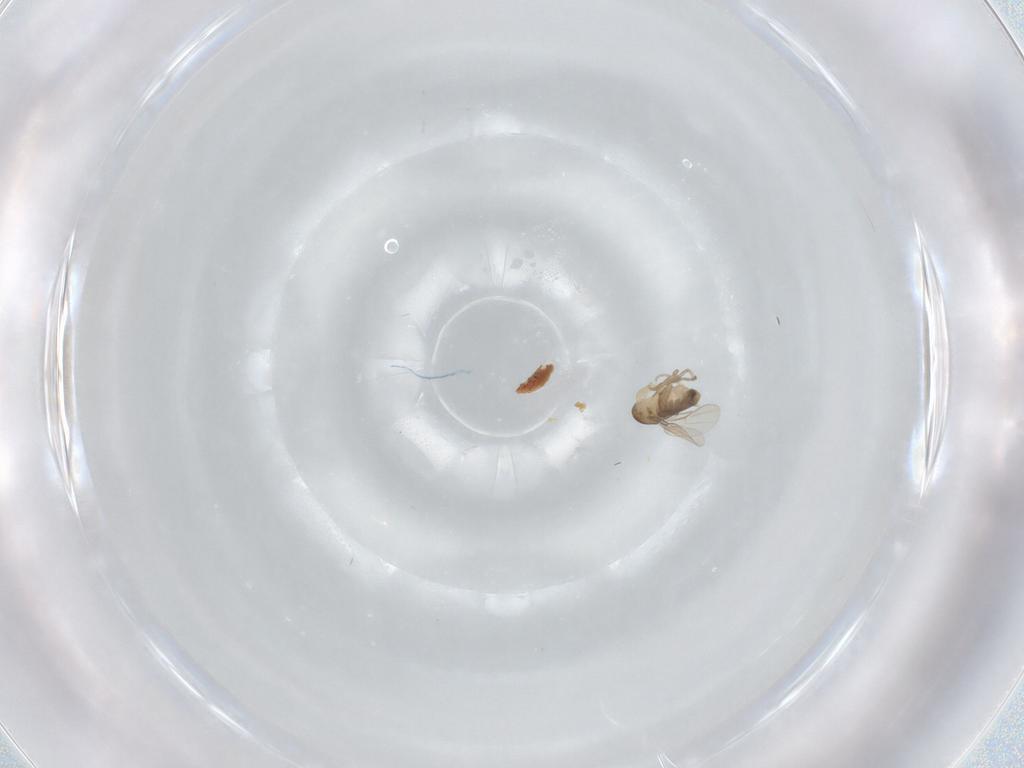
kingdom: Animalia
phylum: Arthropoda
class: Insecta
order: Diptera
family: Phoridae
